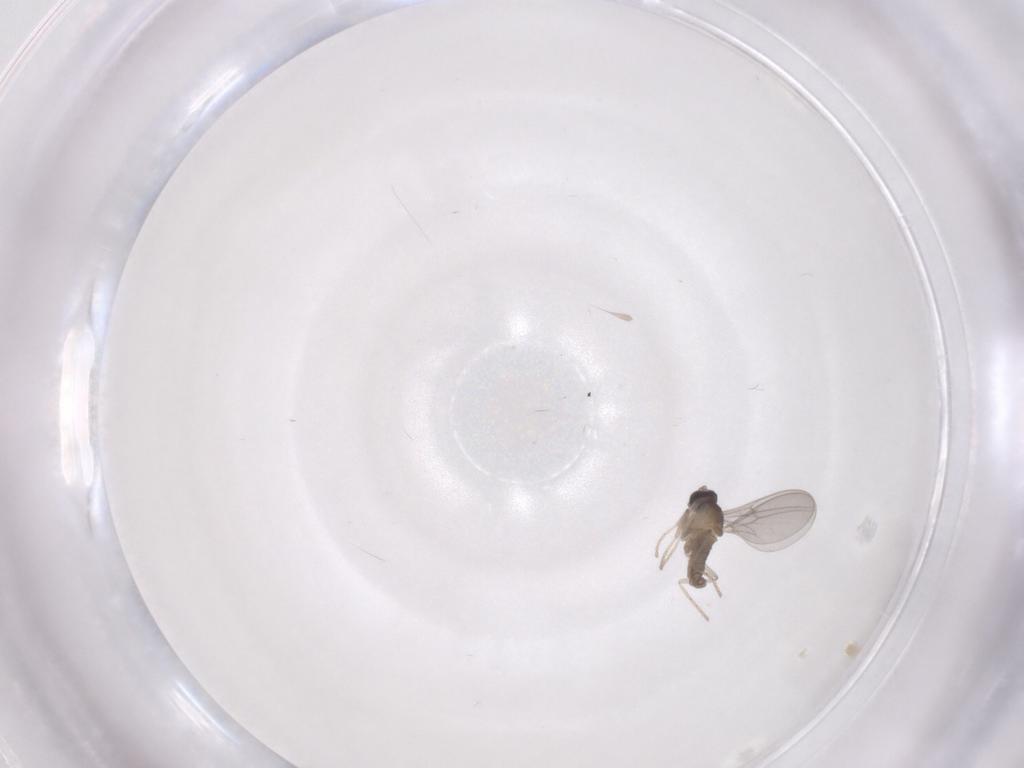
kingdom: Animalia
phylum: Arthropoda
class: Insecta
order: Diptera
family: Cecidomyiidae
